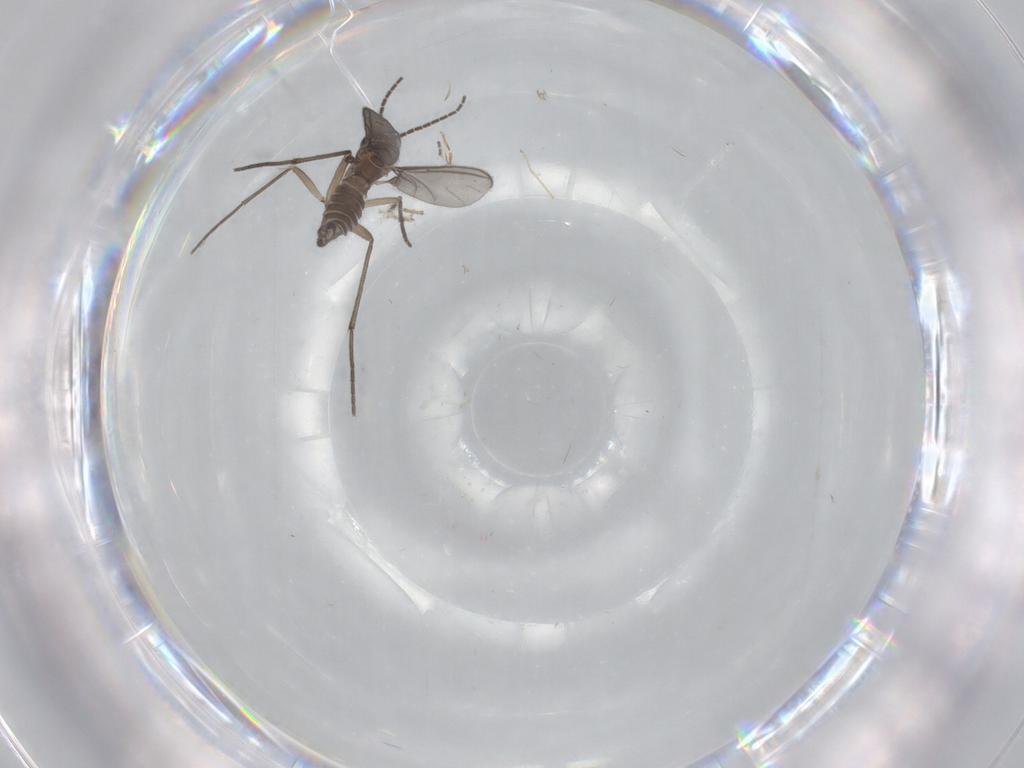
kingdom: Animalia
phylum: Arthropoda
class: Insecta
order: Diptera
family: Sciaridae
